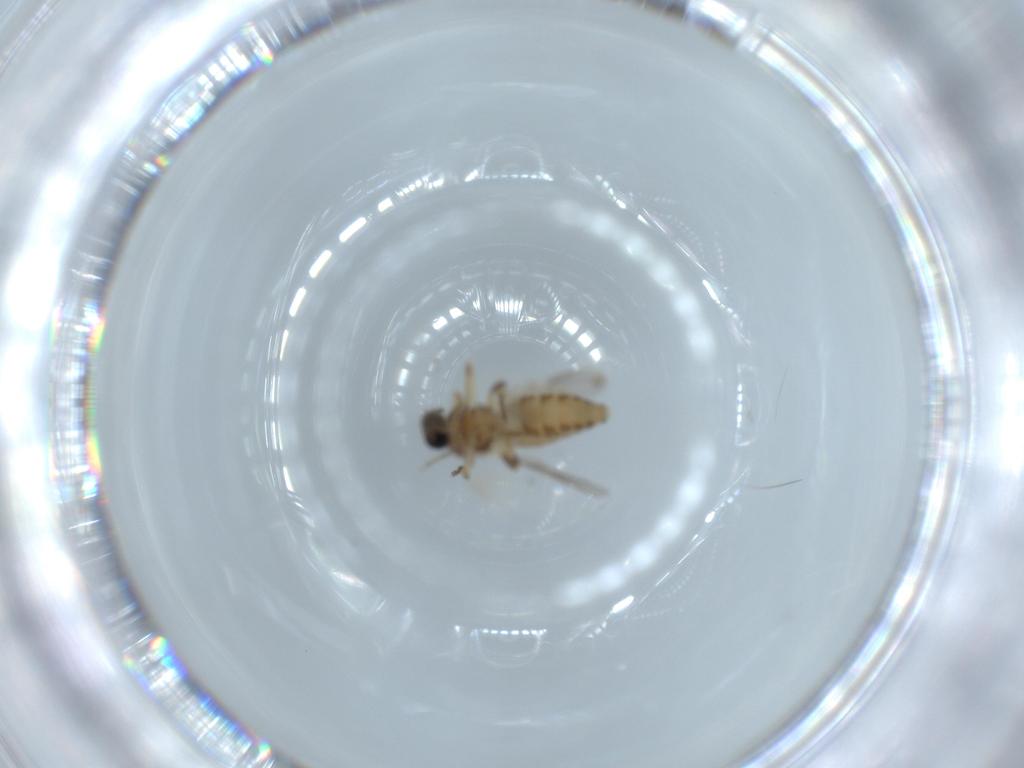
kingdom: Animalia
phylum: Arthropoda
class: Insecta
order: Diptera
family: Ceratopogonidae
